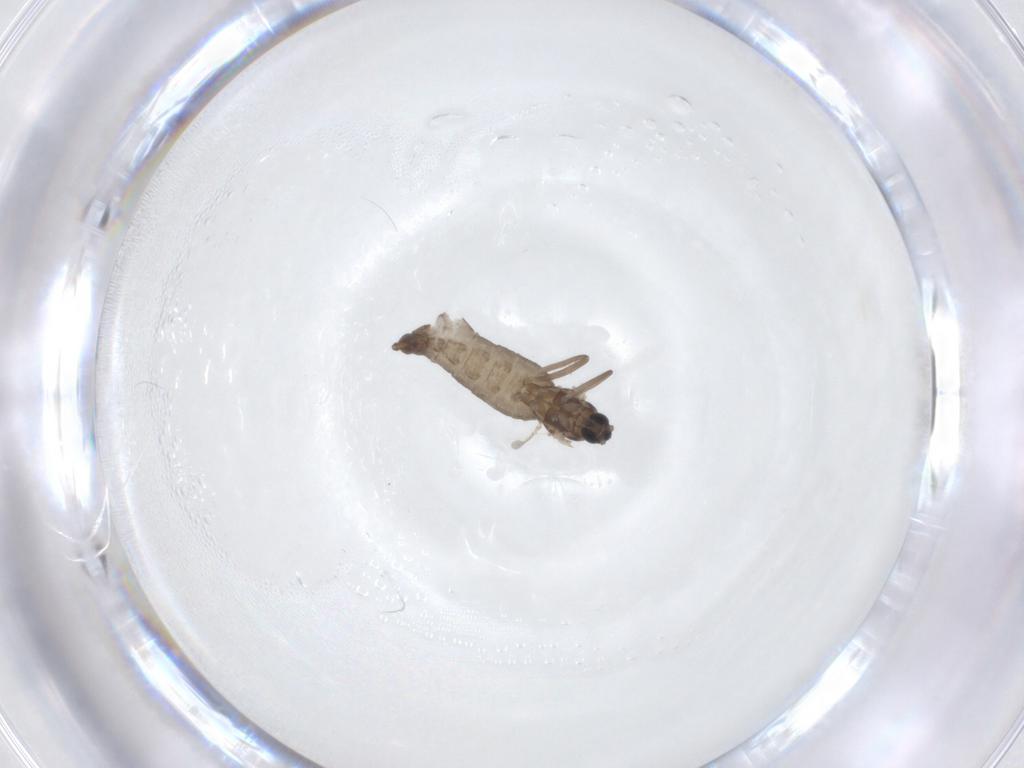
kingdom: Animalia
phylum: Arthropoda
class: Insecta
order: Diptera
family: Cecidomyiidae
